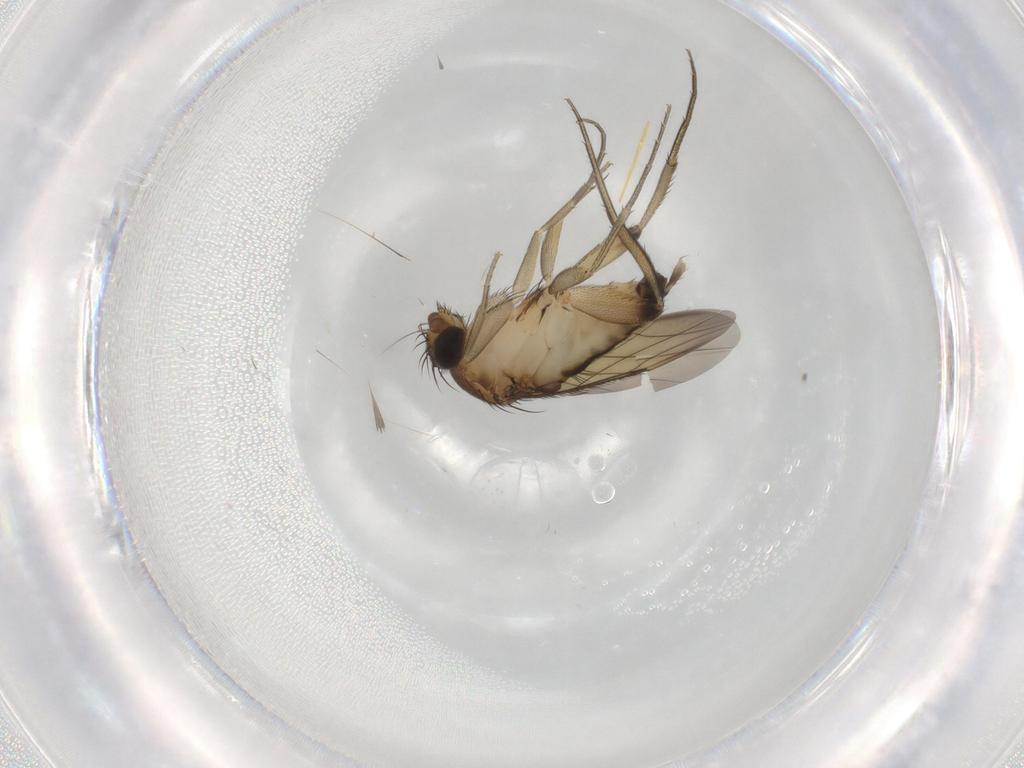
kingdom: Animalia
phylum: Arthropoda
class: Insecta
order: Diptera
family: Phoridae
